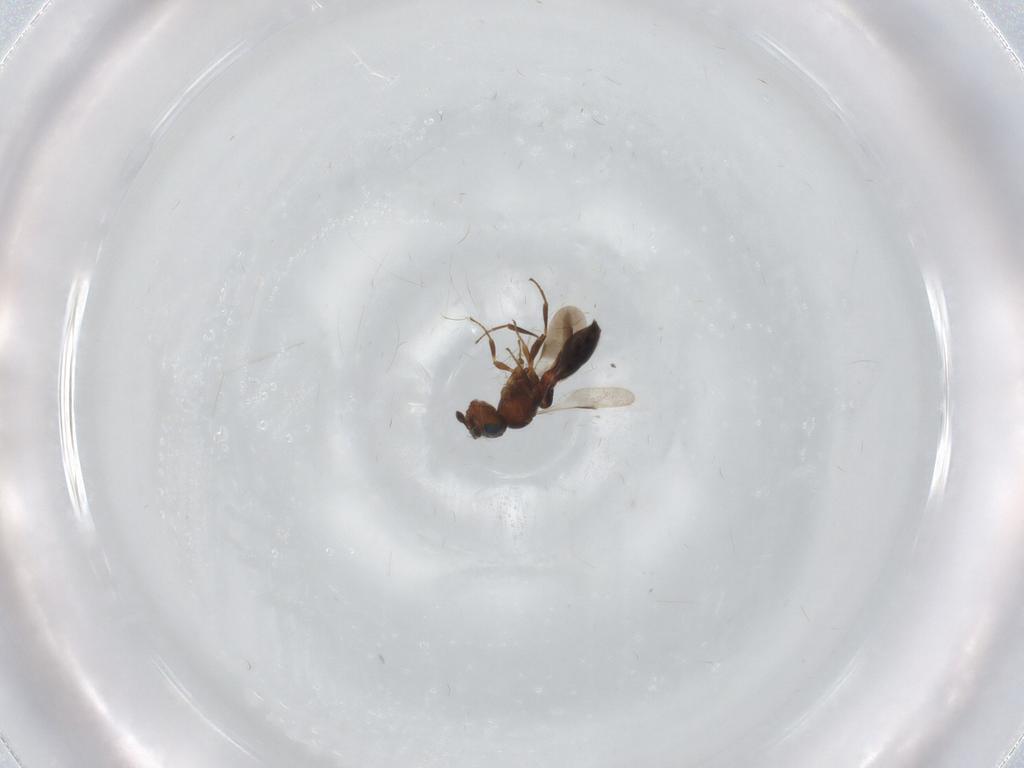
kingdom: Animalia
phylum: Arthropoda
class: Insecta
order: Hymenoptera
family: Scelionidae
